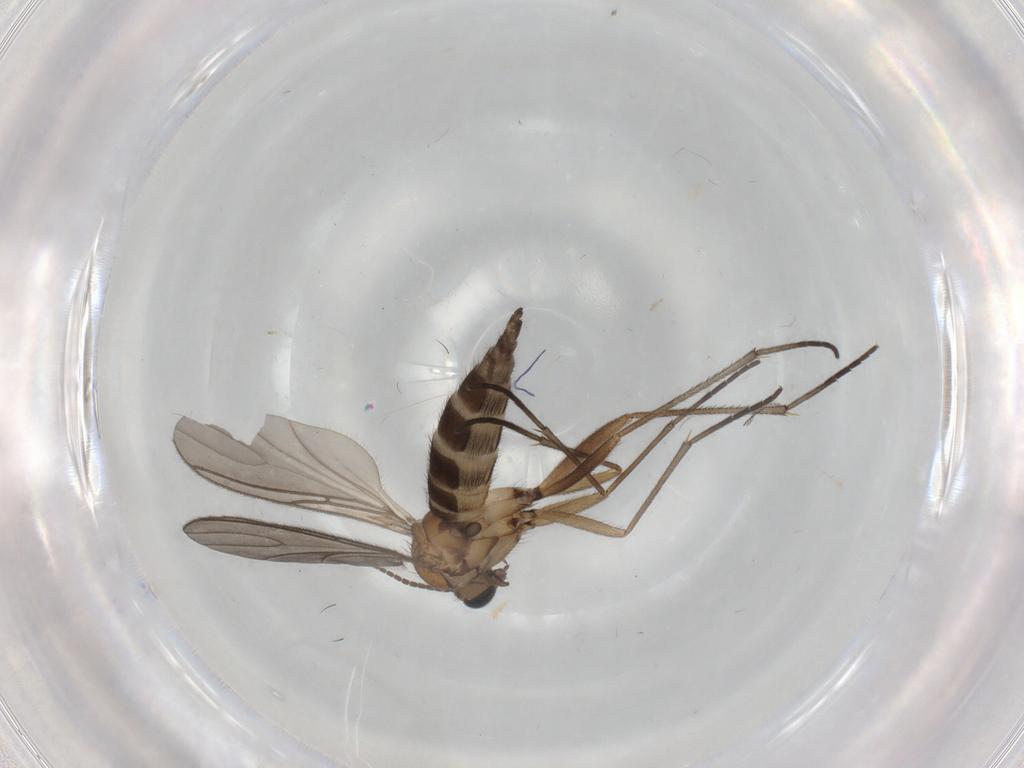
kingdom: Animalia
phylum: Arthropoda
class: Insecta
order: Diptera
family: Sciaridae
